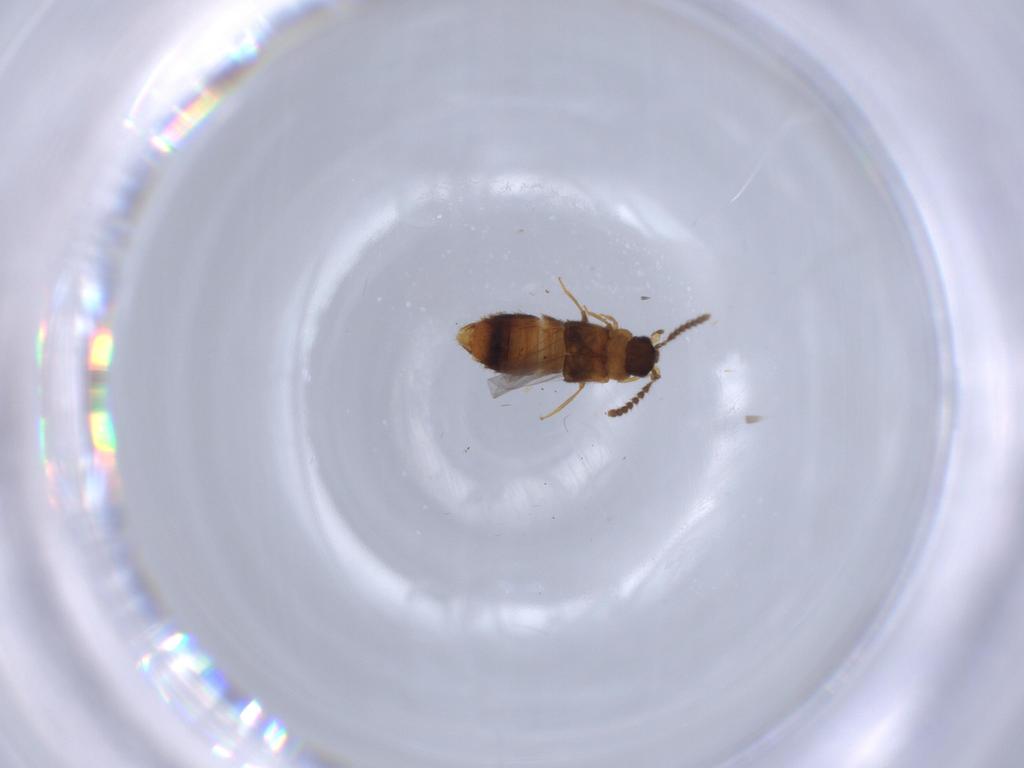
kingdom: Animalia
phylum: Arthropoda
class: Insecta
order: Coleoptera
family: Staphylinidae
